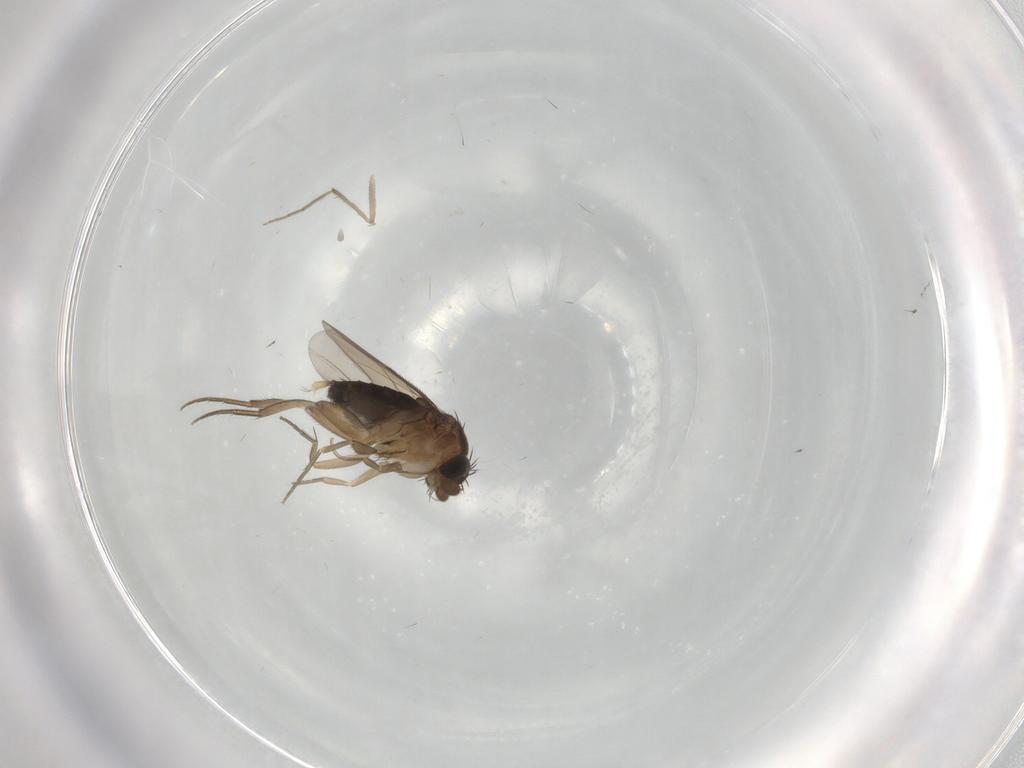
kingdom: Animalia
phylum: Arthropoda
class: Insecta
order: Diptera
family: Phoridae
